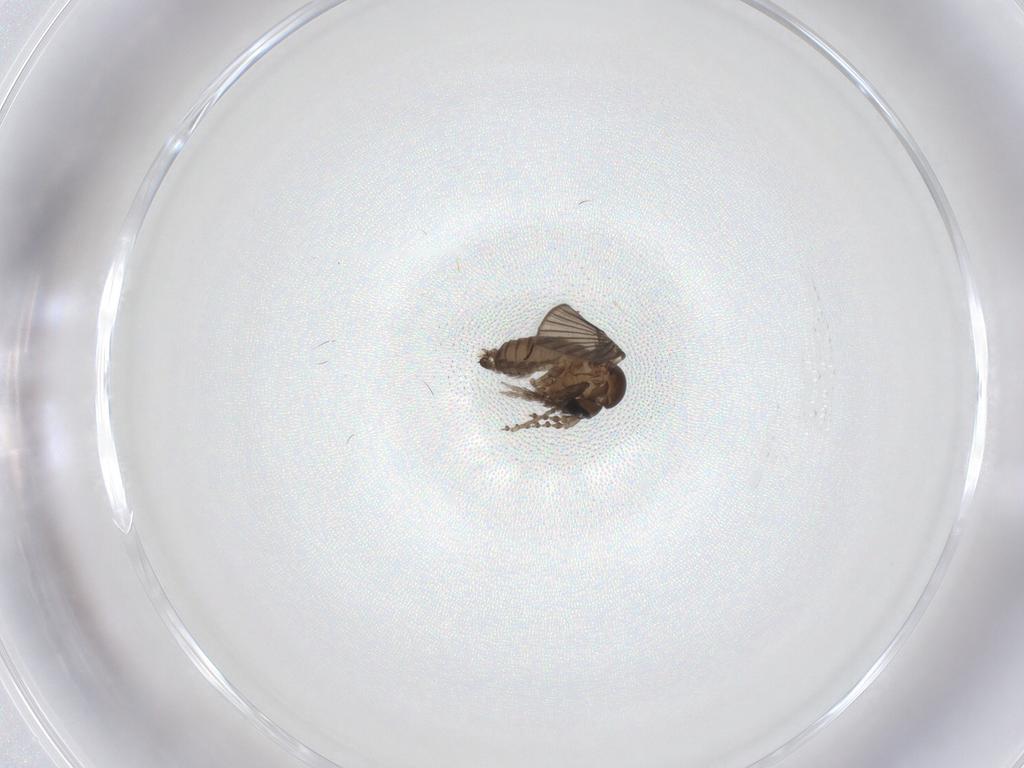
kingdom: Animalia
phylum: Arthropoda
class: Insecta
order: Diptera
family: Psychodidae
